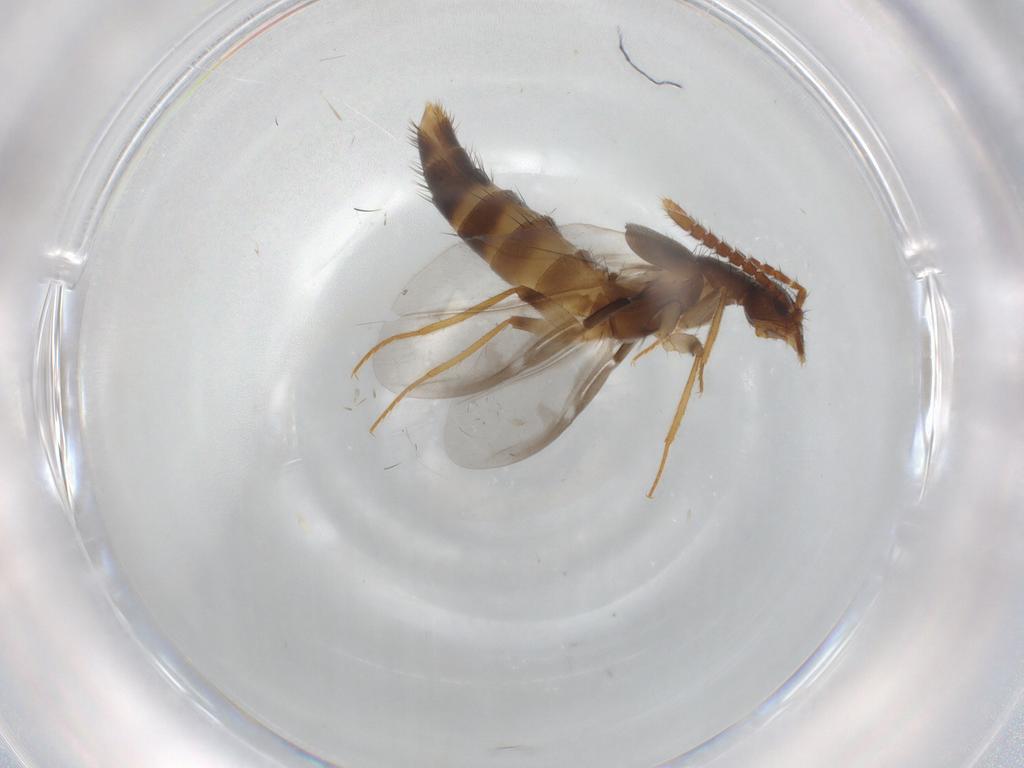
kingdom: Animalia
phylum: Arthropoda
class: Insecta
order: Coleoptera
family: Staphylinidae
